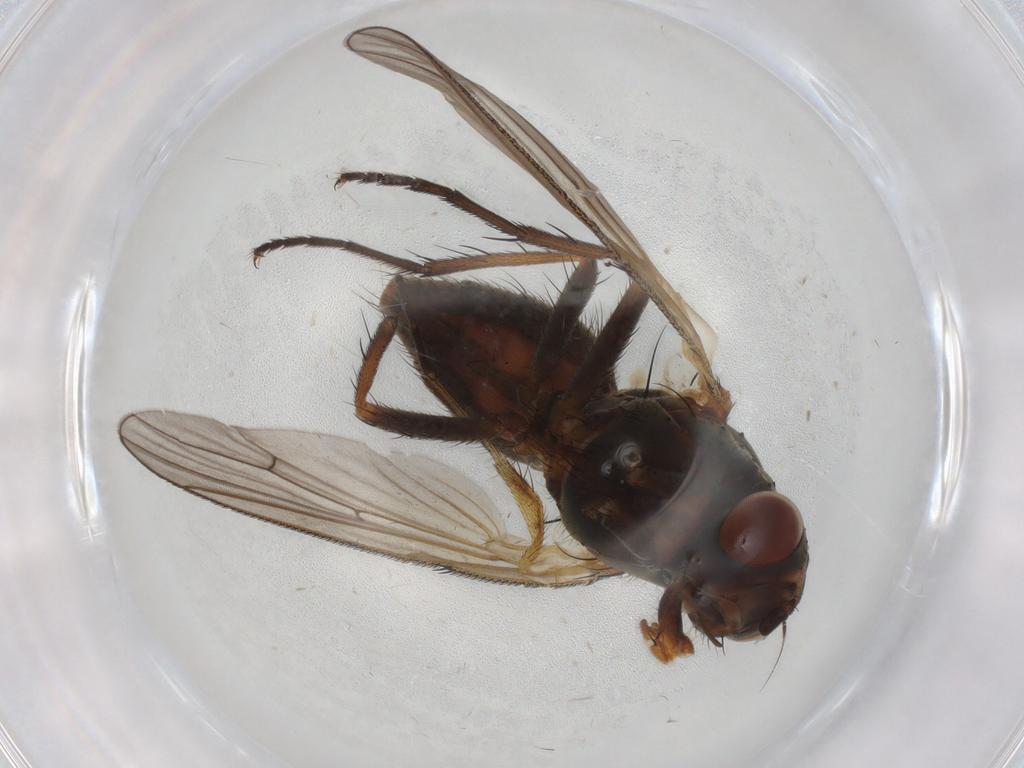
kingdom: Animalia
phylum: Arthropoda
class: Insecta
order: Diptera
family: Anthomyiidae
